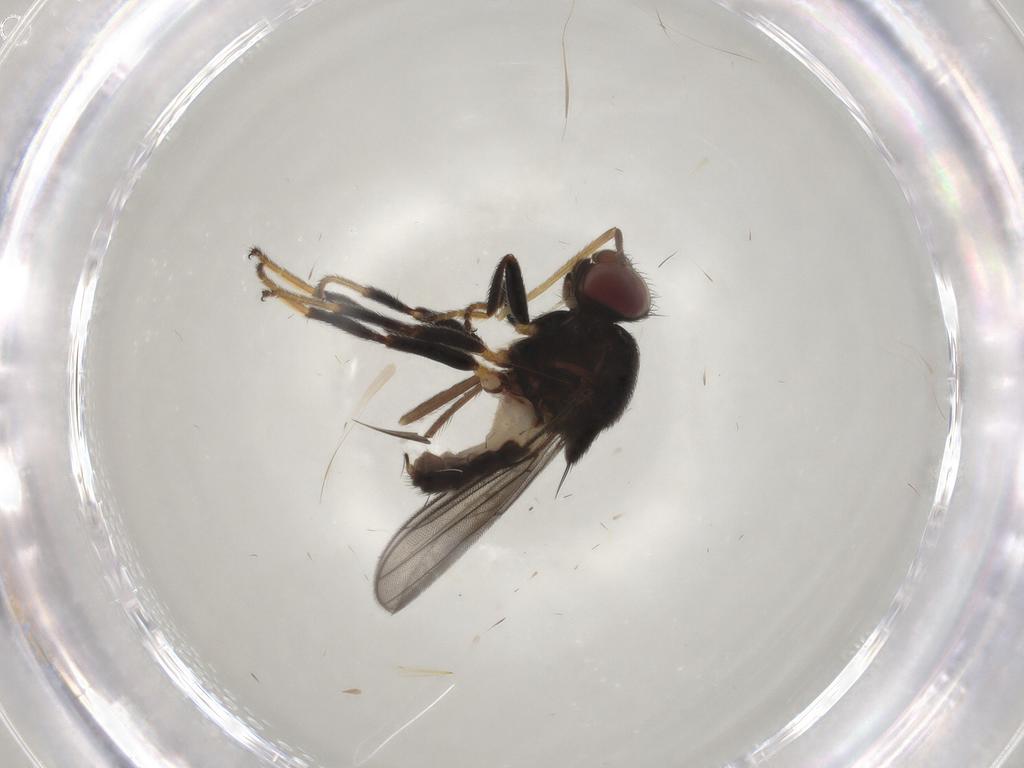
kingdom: Animalia
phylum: Arthropoda
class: Insecta
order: Diptera
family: Chloropidae
